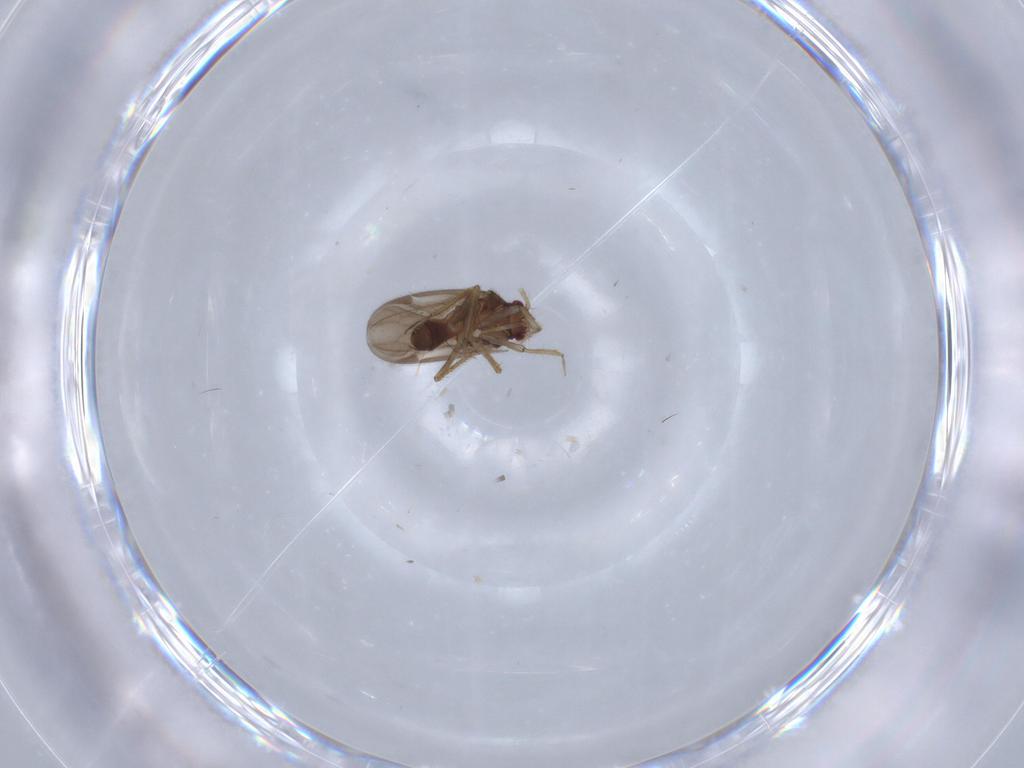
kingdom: Animalia
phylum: Arthropoda
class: Insecta
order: Hemiptera
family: Ceratocombidae
